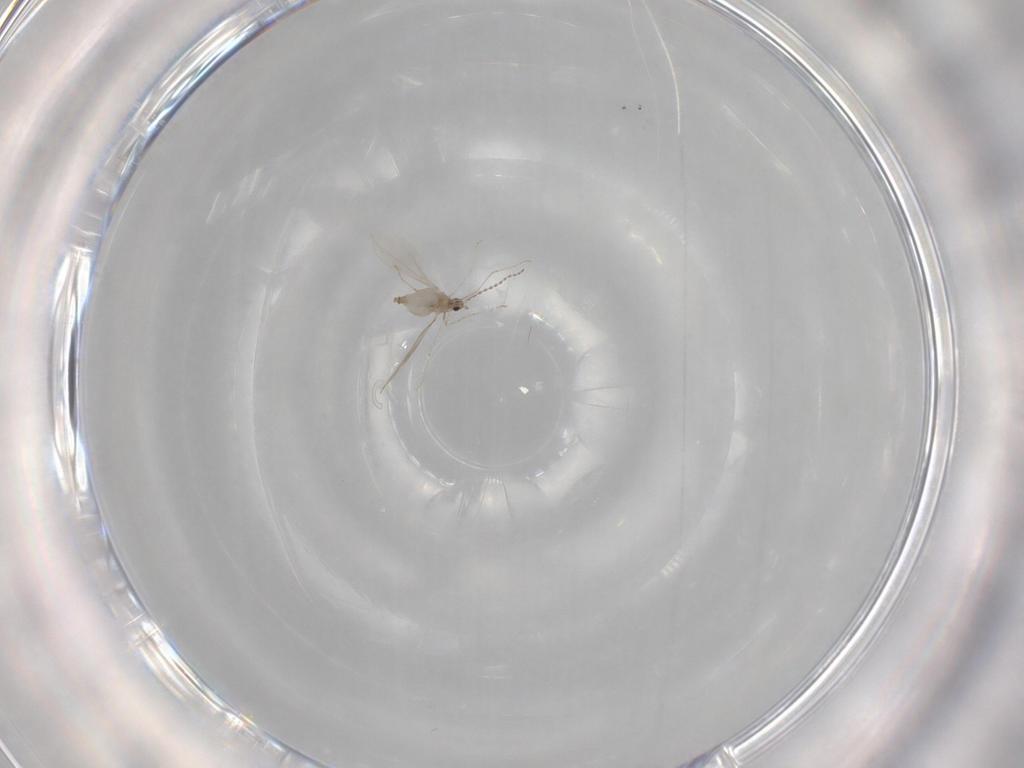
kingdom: Animalia
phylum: Arthropoda
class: Insecta
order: Diptera
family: Cecidomyiidae
